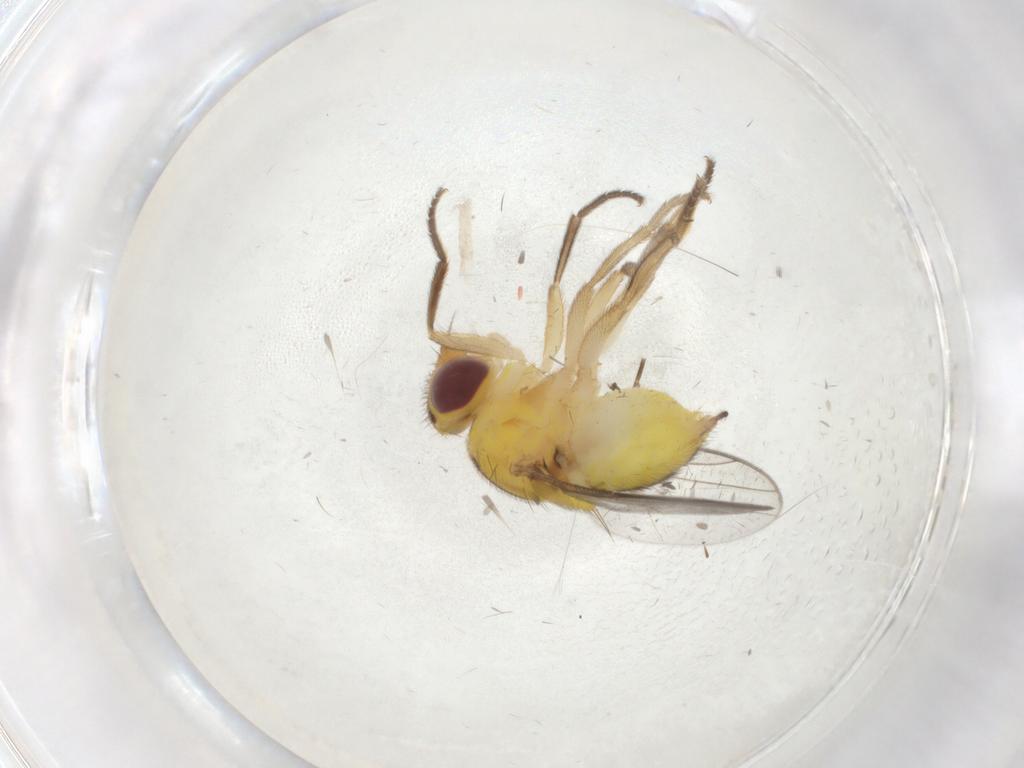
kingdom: Animalia
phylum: Arthropoda
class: Insecta
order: Diptera
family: Chloropidae
